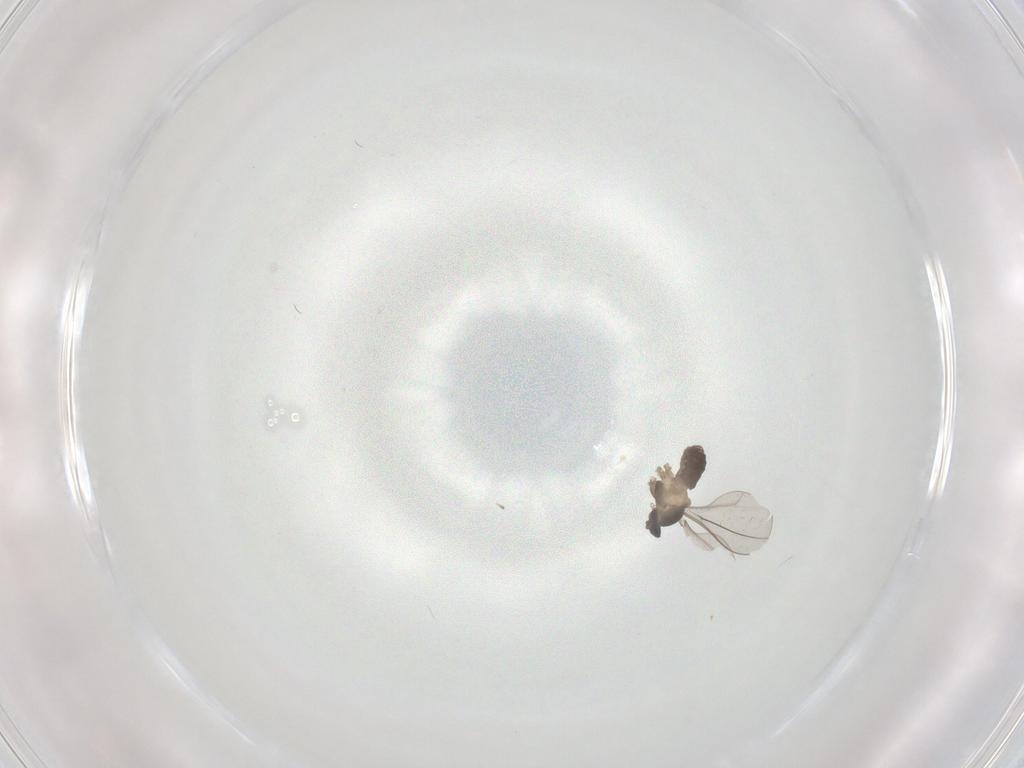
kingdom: Animalia
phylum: Arthropoda
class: Insecta
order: Diptera
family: Cecidomyiidae
